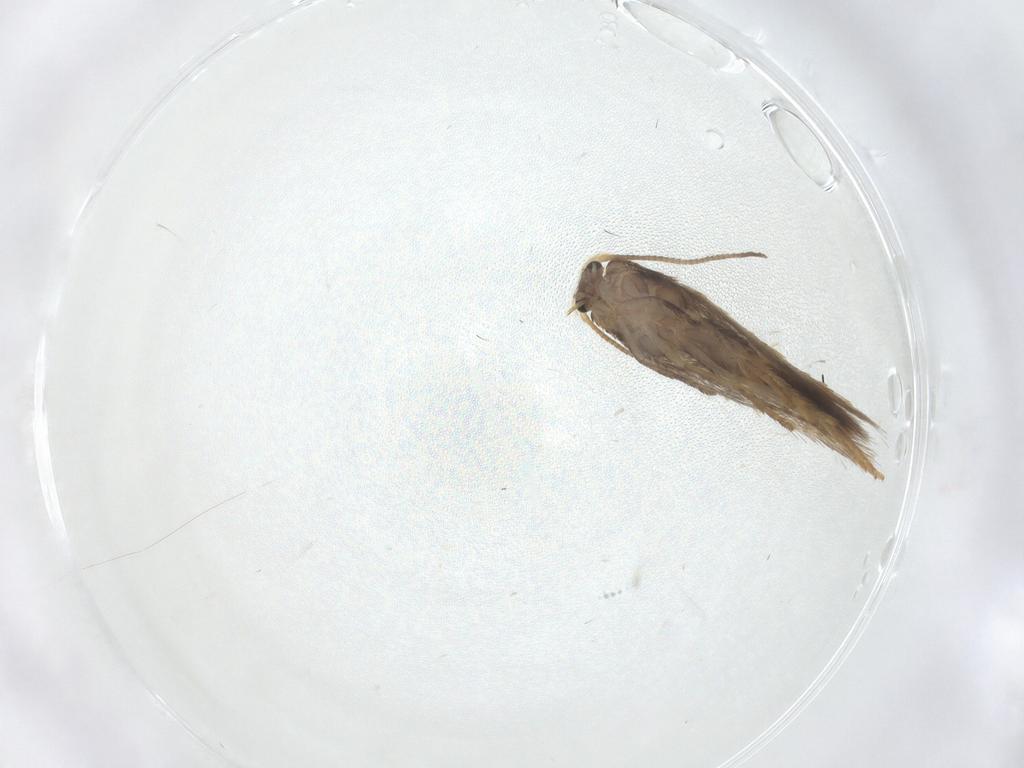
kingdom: Animalia
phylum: Arthropoda
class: Insecta
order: Lepidoptera
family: Nepticulidae
